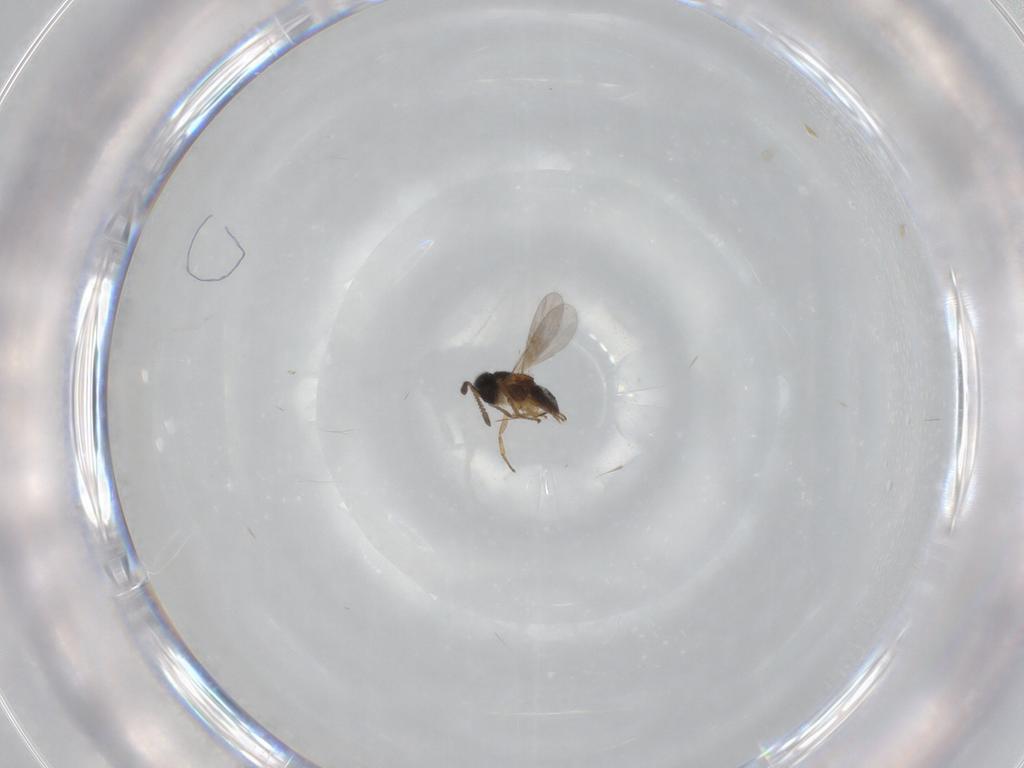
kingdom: Animalia
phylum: Arthropoda
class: Insecta
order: Hymenoptera
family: Encyrtidae
